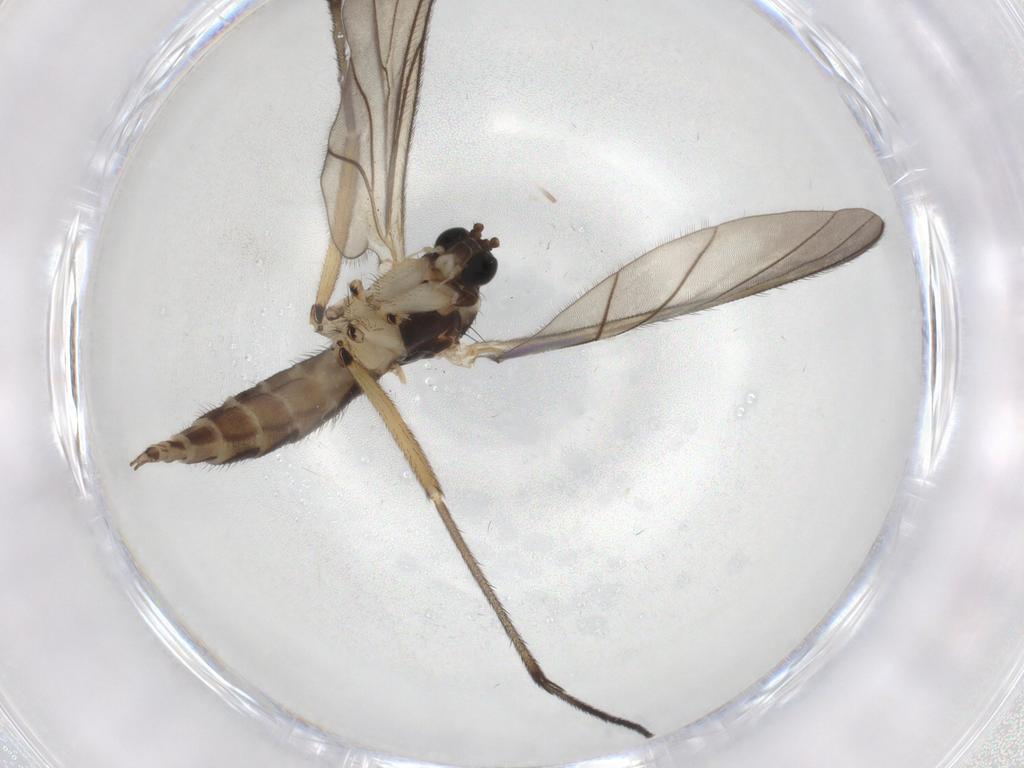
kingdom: Animalia
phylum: Arthropoda
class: Insecta
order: Diptera
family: Sciaridae
